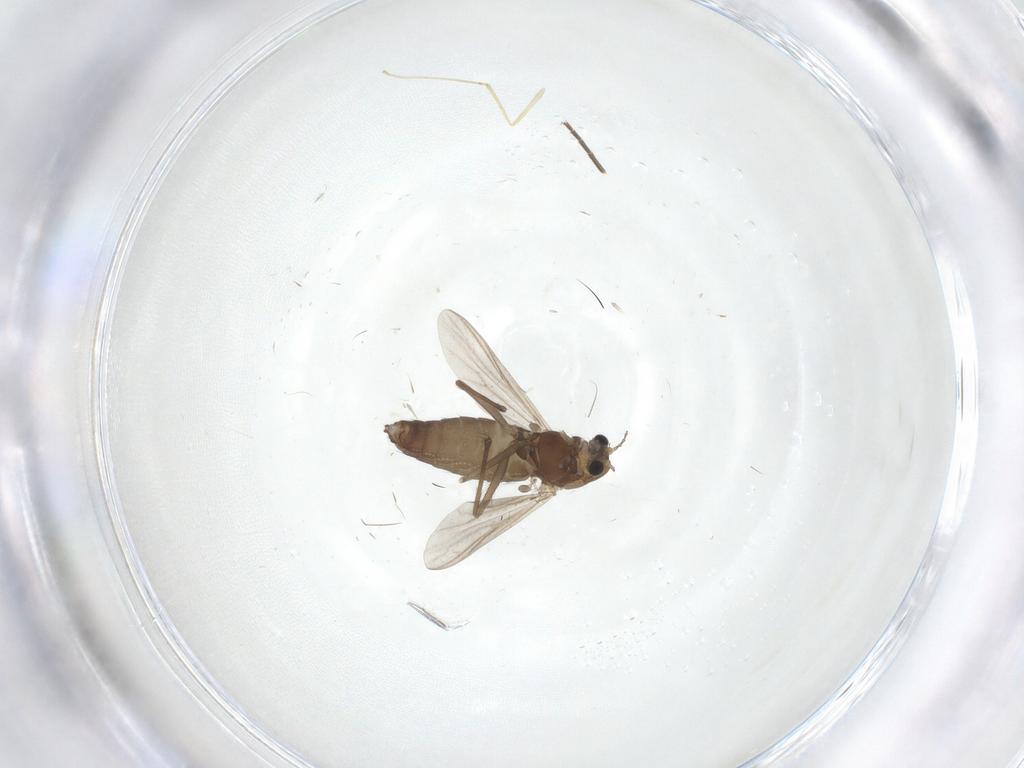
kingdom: Animalia
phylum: Arthropoda
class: Insecta
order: Diptera
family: Chironomidae
